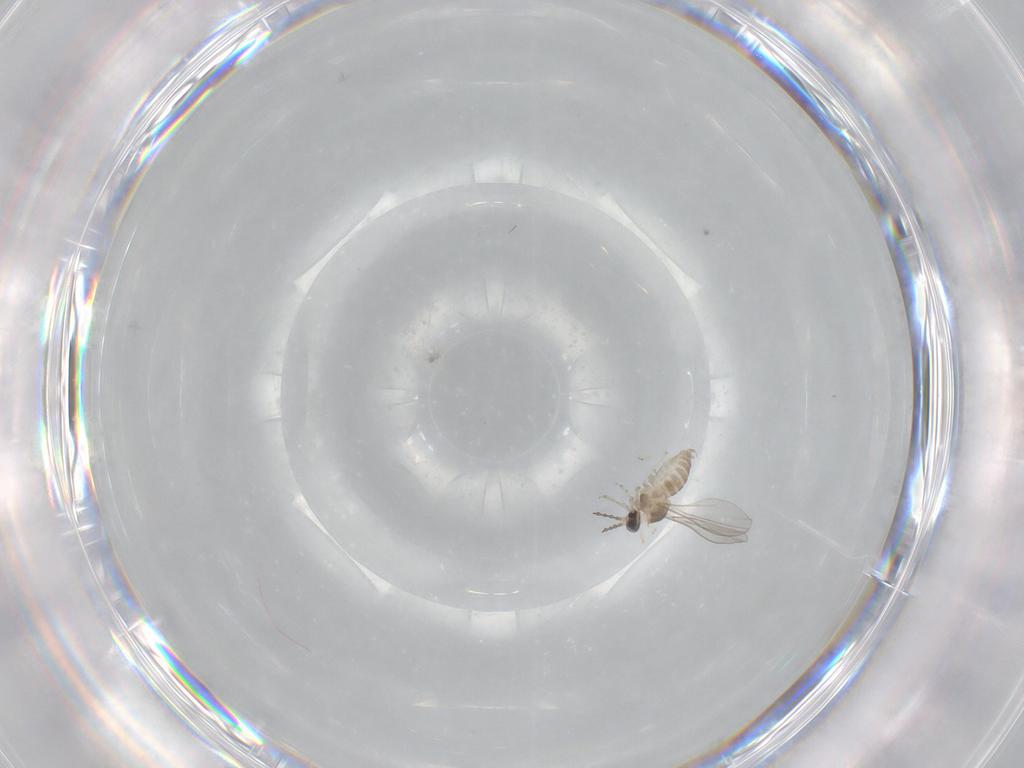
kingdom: Animalia
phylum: Arthropoda
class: Insecta
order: Diptera
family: Cecidomyiidae
